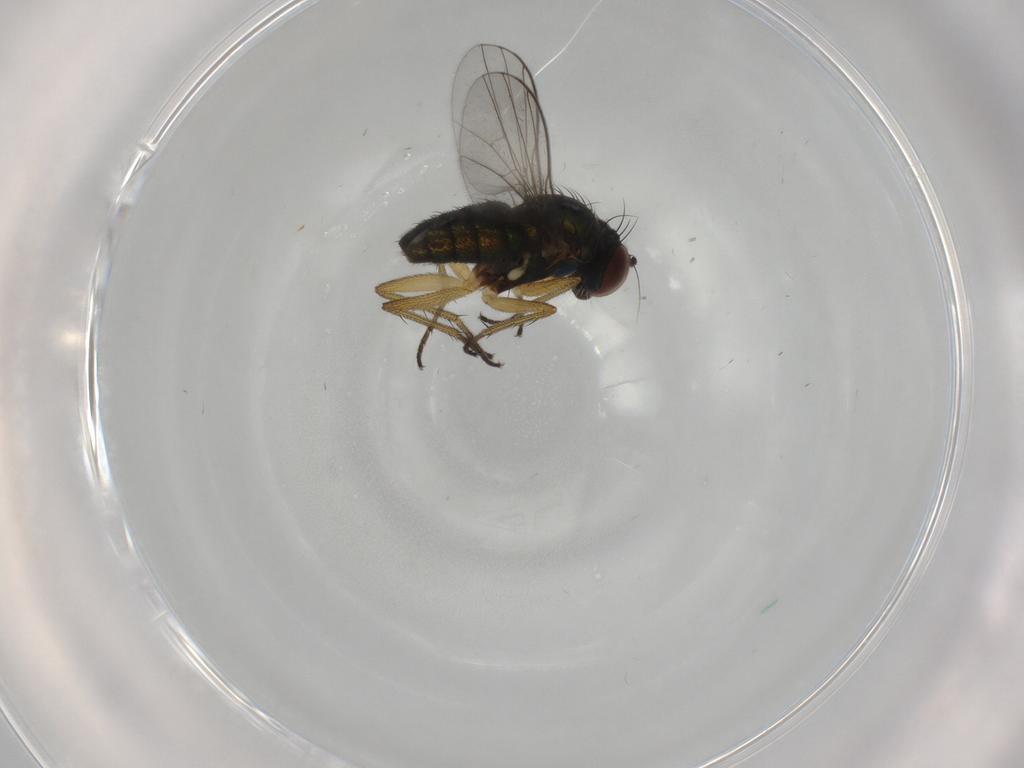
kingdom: Animalia
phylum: Arthropoda
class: Insecta
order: Diptera
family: Dolichopodidae
